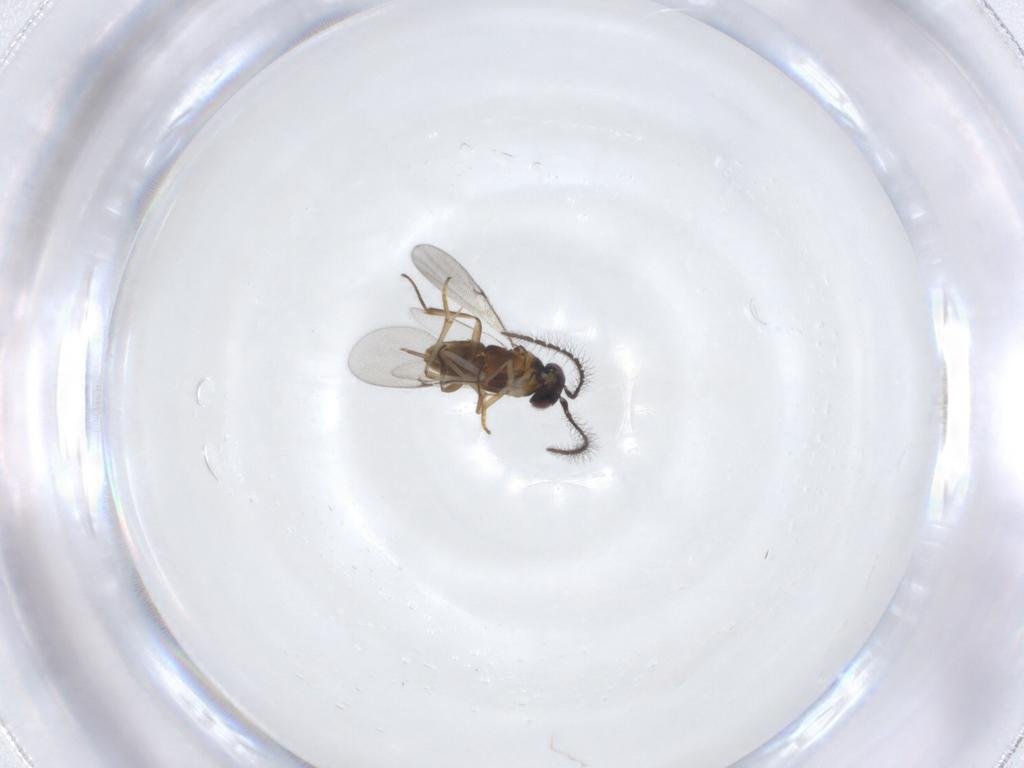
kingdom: Animalia
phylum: Arthropoda
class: Insecta
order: Hymenoptera
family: Encyrtidae
